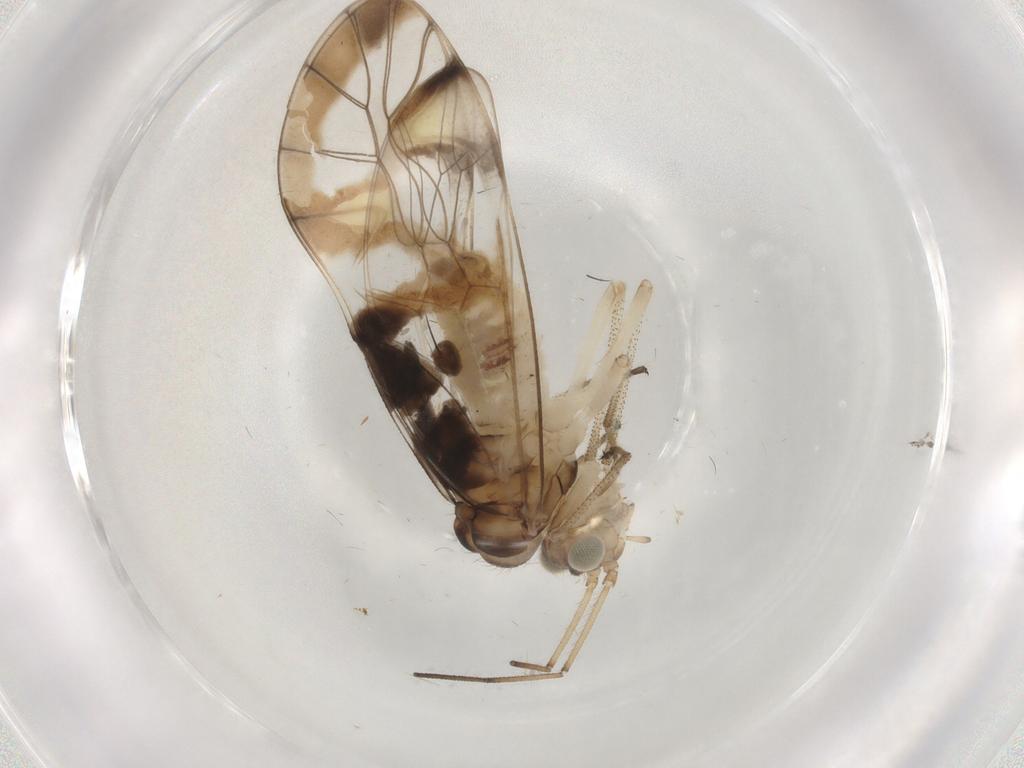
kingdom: Animalia
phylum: Arthropoda
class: Insecta
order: Psocodea
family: Amphipsocidae
